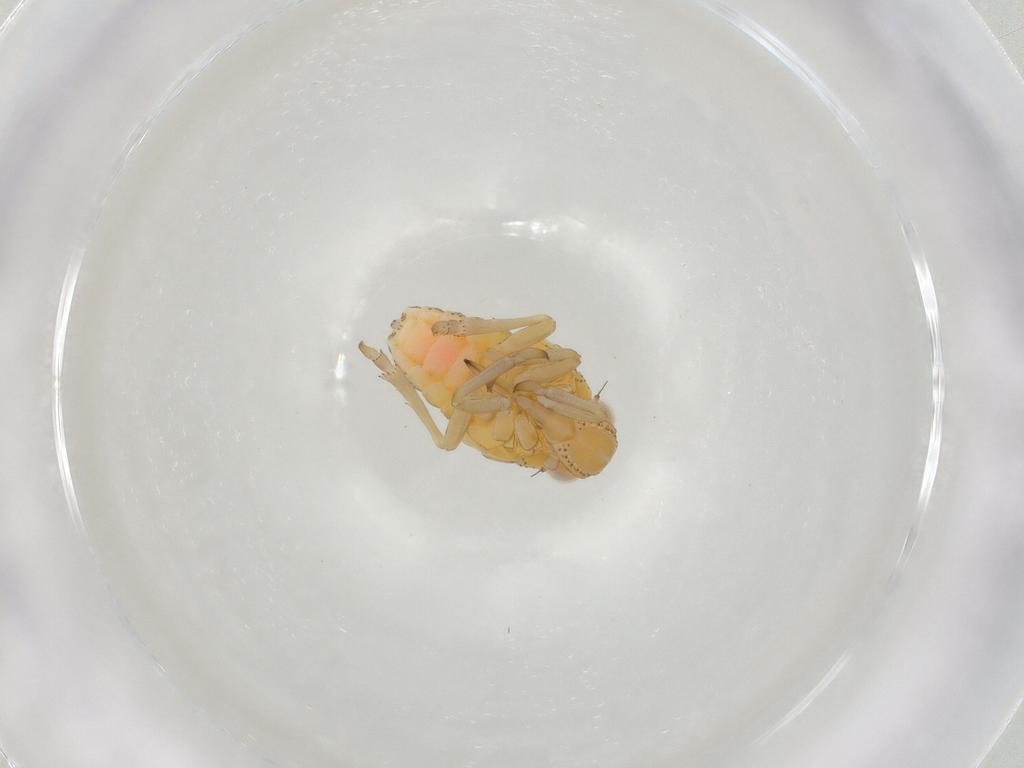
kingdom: Animalia
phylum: Arthropoda
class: Insecta
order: Hemiptera
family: Tropiduchidae
